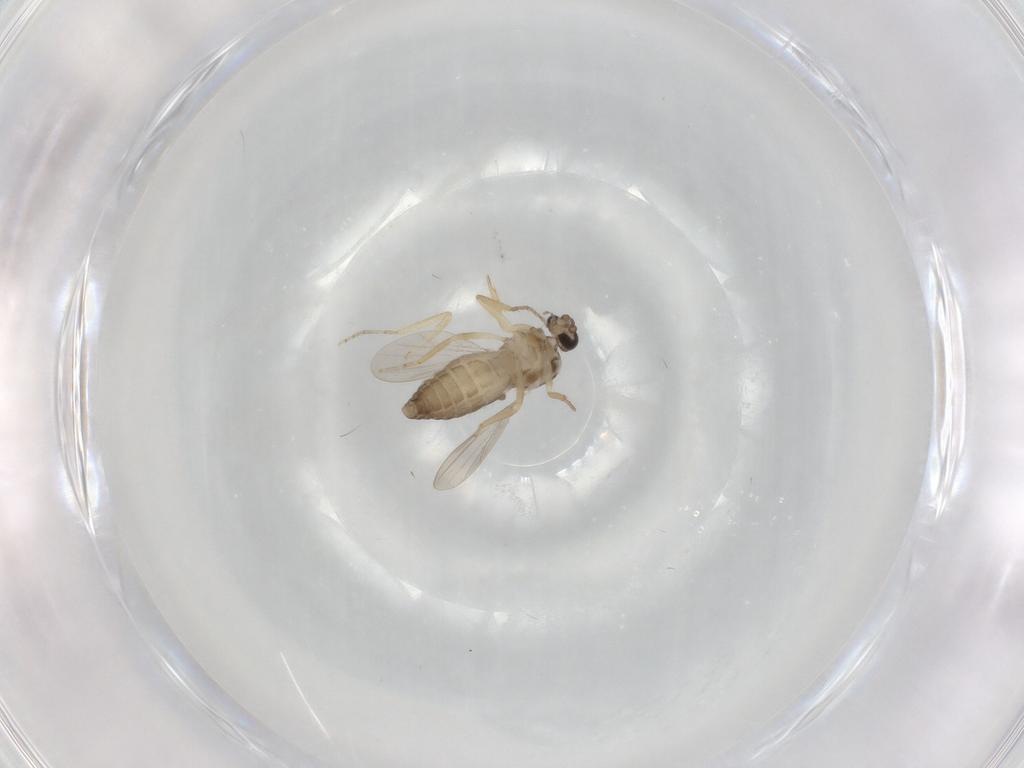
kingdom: Animalia
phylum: Arthropoda
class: Insecta
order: Diptera
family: Ceratopogonidae
